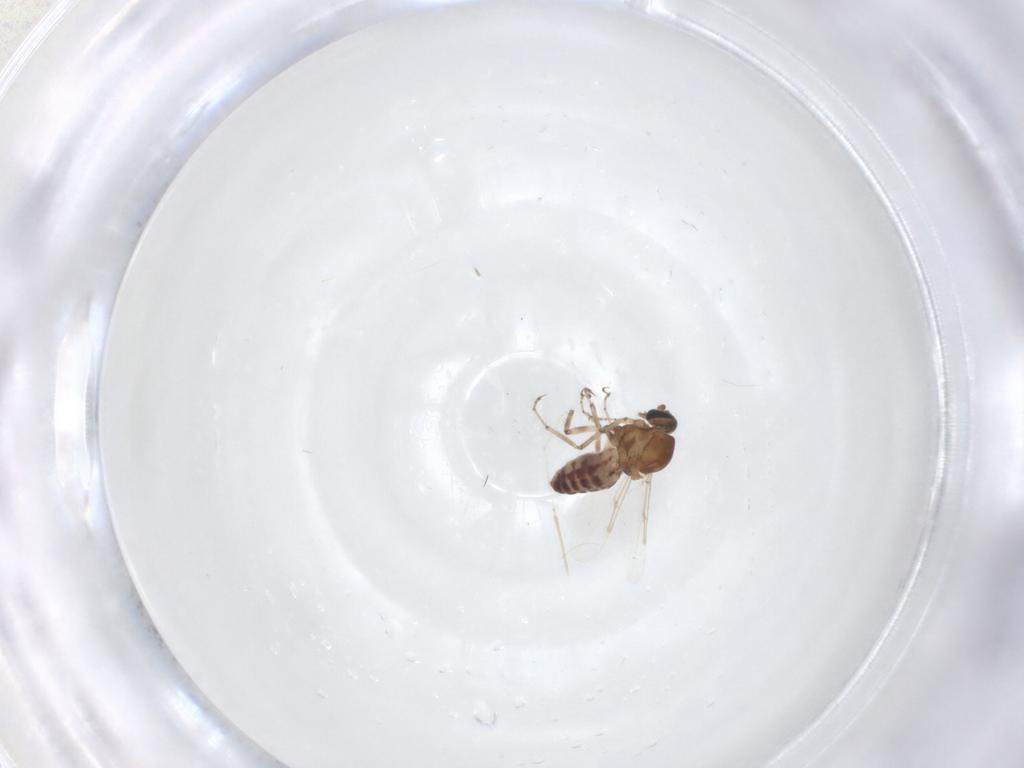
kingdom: Animalia
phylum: Arthropoda
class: Insecta
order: Diptera
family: Ceratopogonidae
